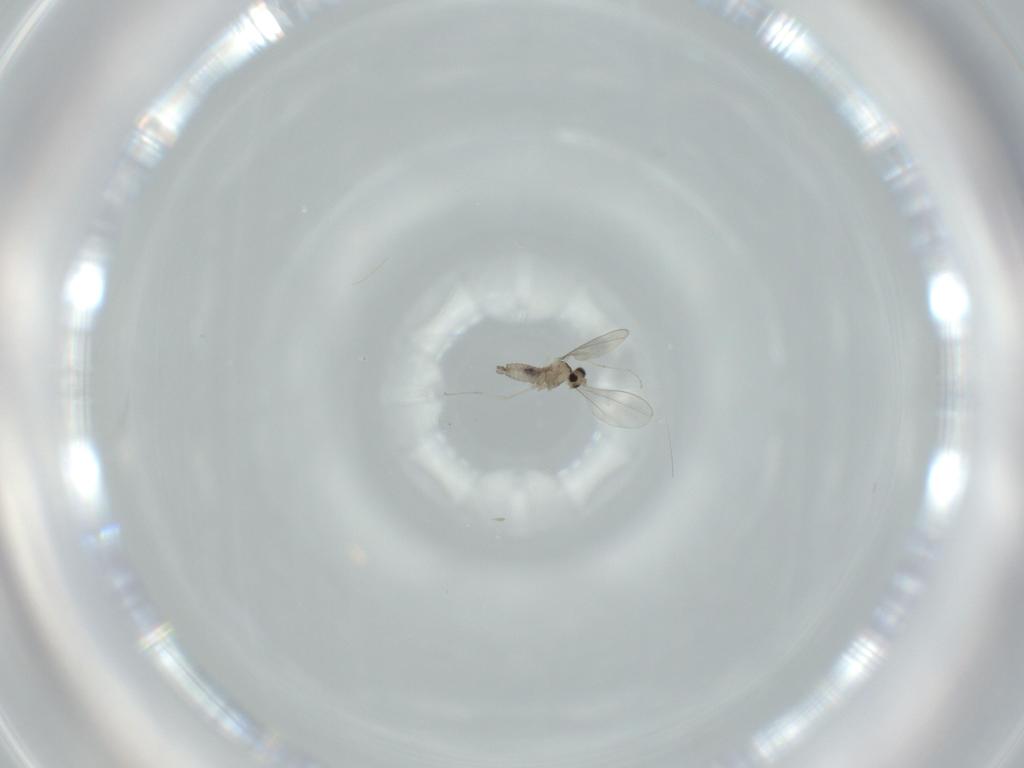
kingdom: Animalia
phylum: Arthropoda
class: Insecta
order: Diptera
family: Cecidomyiidae
